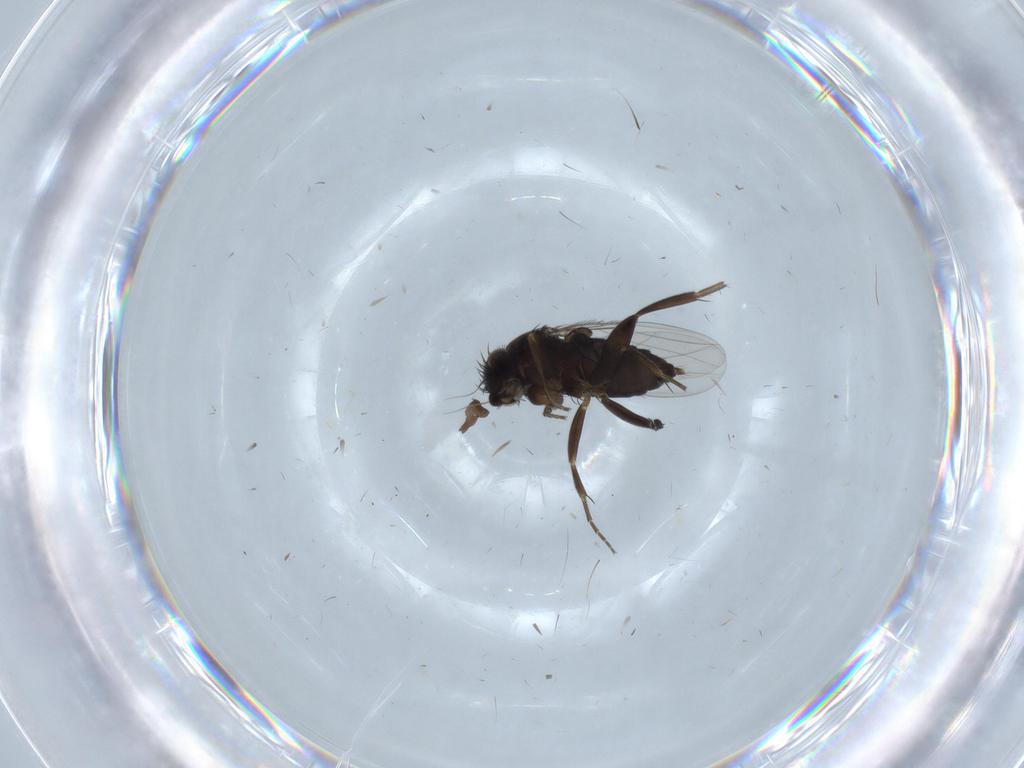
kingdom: Animalia
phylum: Arthropoda
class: Insecta
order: Diptera
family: Phoridae
